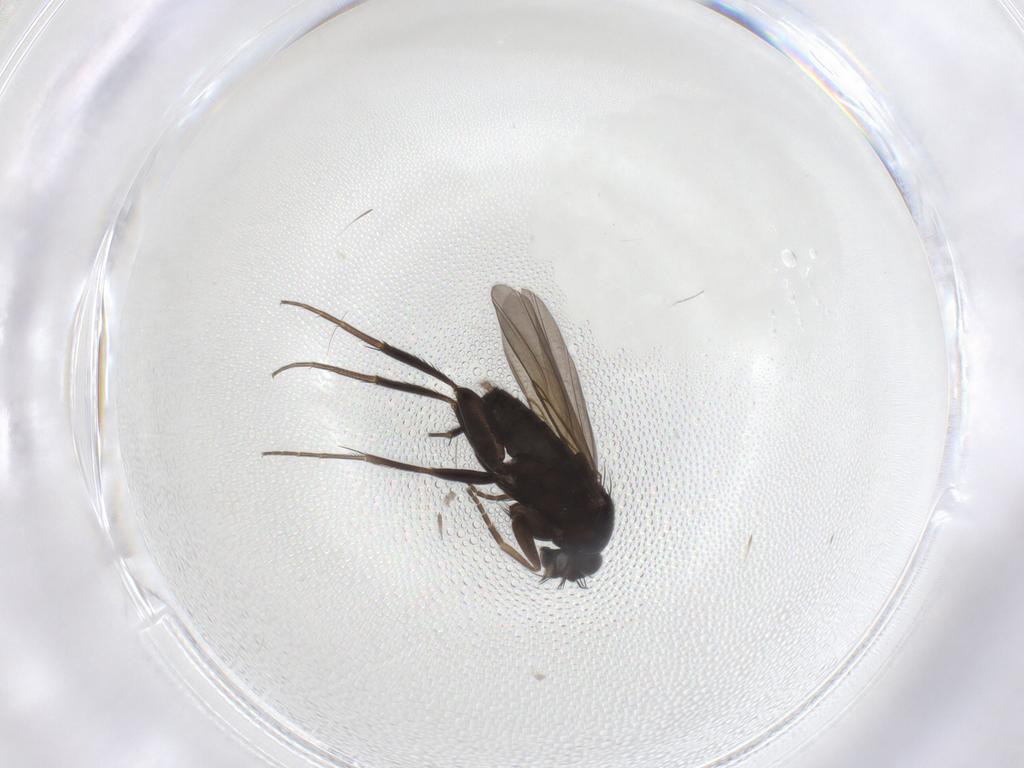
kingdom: Animalia
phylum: Arthropoda
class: Insecta
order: Diptera
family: Phoridae
